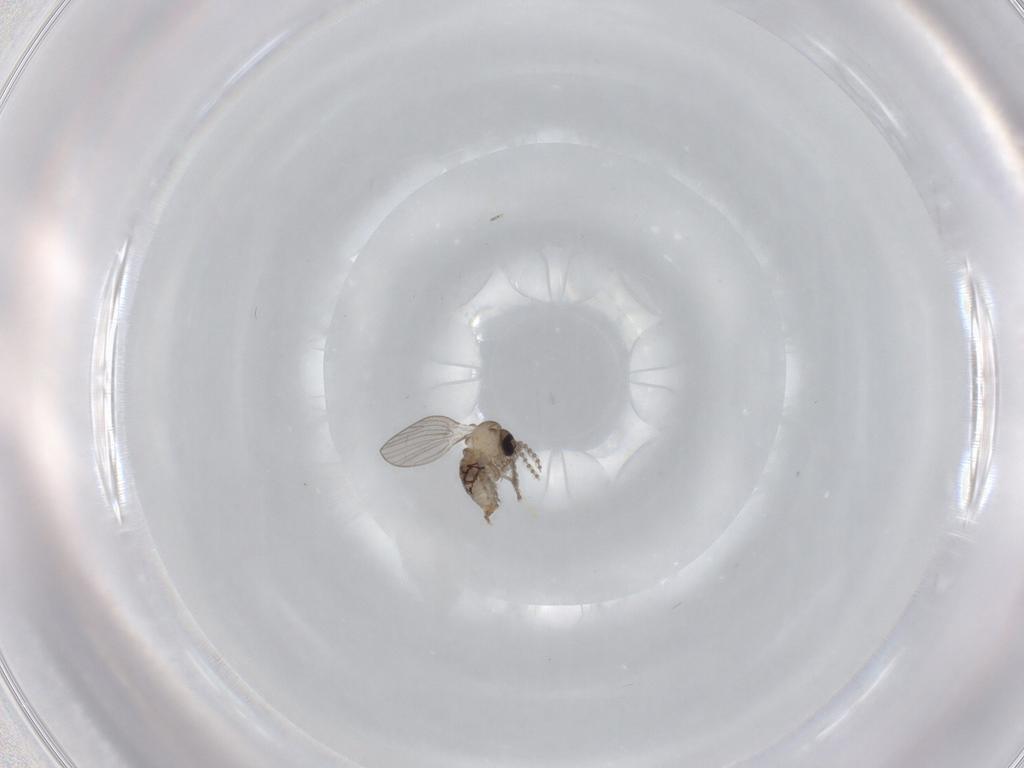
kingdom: Animalia
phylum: Arthropoda
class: Insecta
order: Diptera
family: Psychodidae
